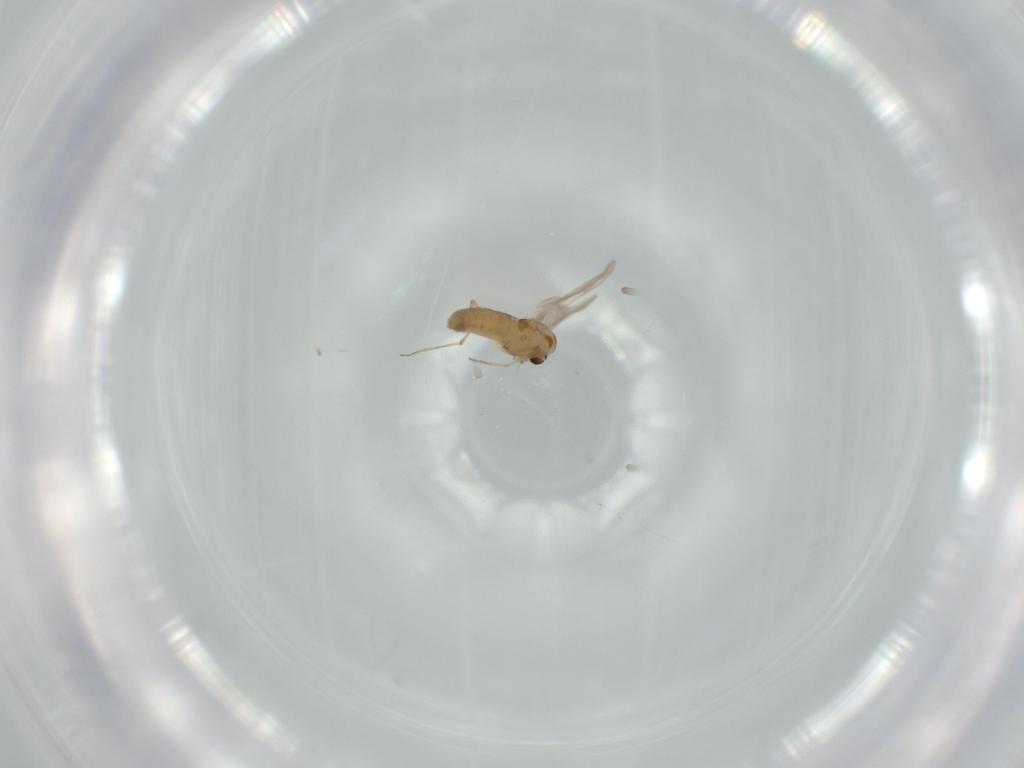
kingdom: Animalia
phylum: Arthropoda
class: Insecta
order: Diptera
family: Chironomidae
